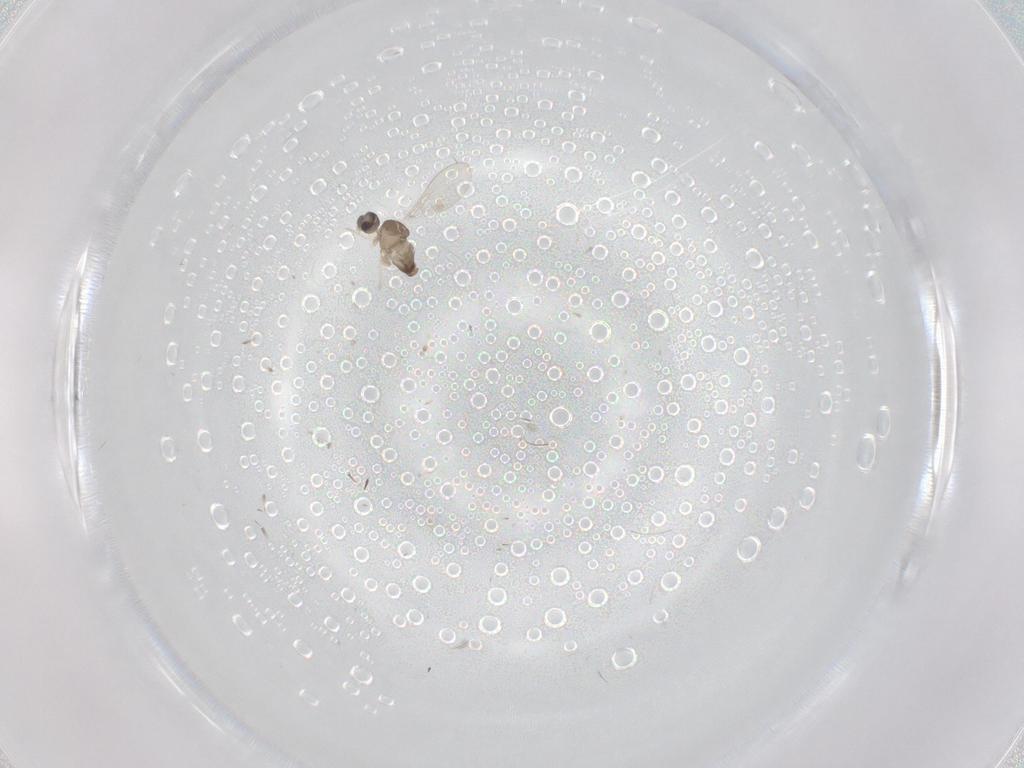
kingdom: Animalia
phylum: Arthropoda
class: Insecta
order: Diptera
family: Cecidomyiidae
